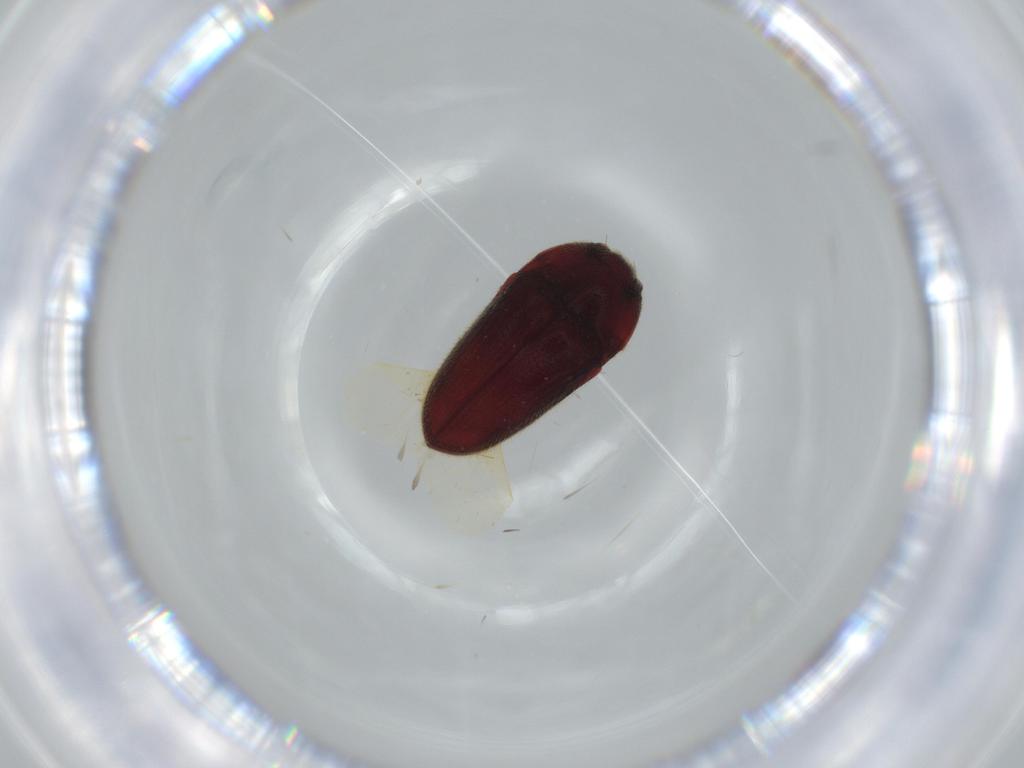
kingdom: Animalia
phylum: Arthropoda
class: Insecta
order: Coleoptera
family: Throscidae
